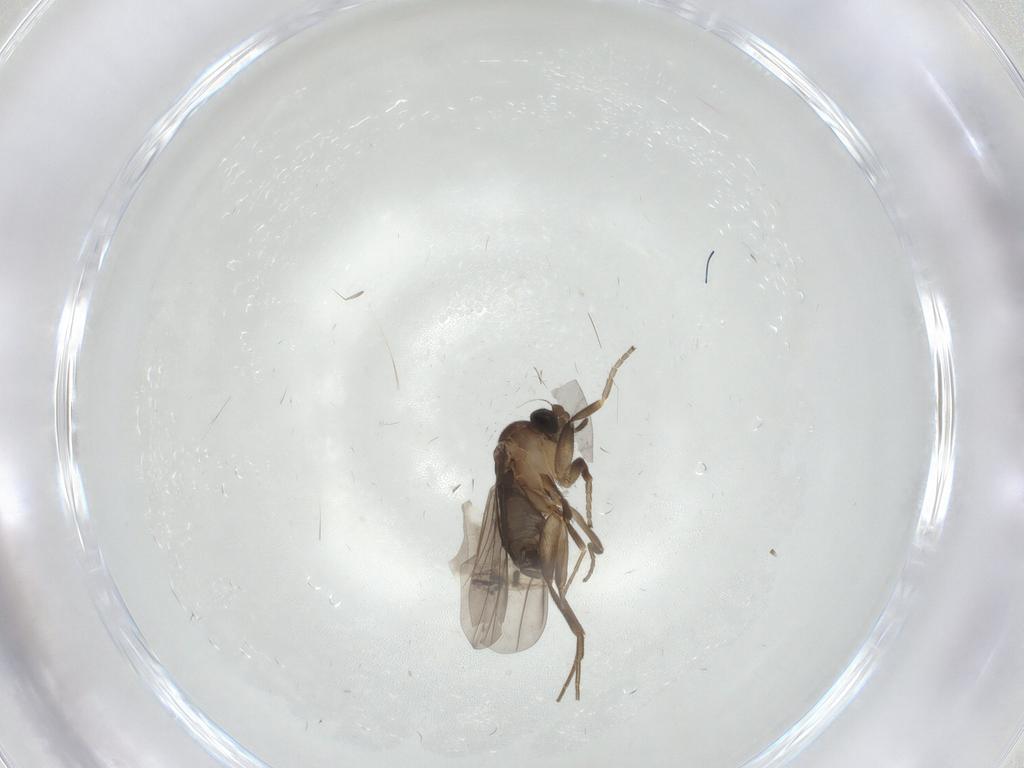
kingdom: Animalia
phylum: Arthropoda
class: Insecta
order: Diptera
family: Phoridae
